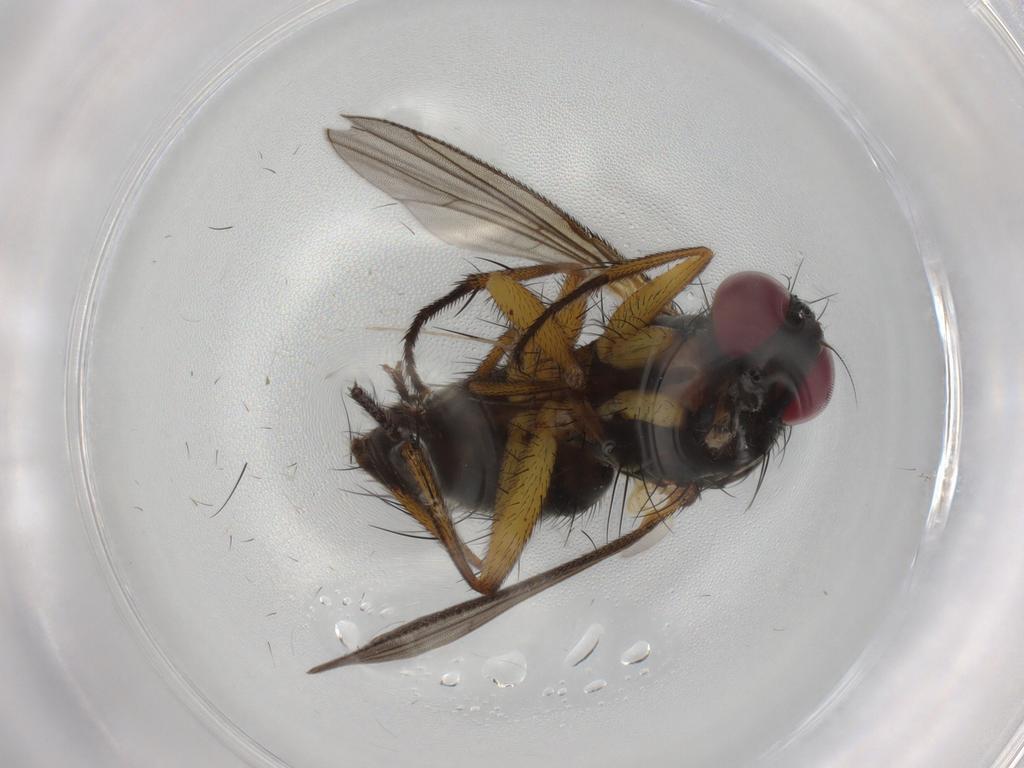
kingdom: Animalia
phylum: Arthropoda
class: Insecta
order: Diptera
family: Muscidae
